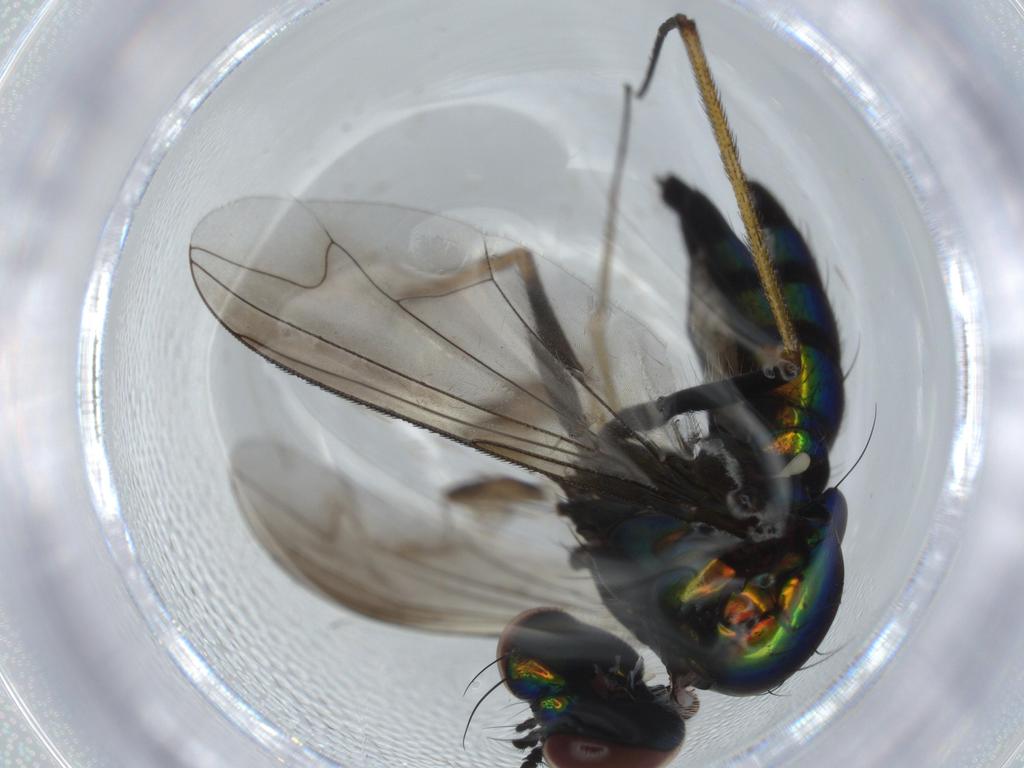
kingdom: Animalia
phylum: Arthropoda
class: Insecta
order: Diptera
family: Dolichopodidae
